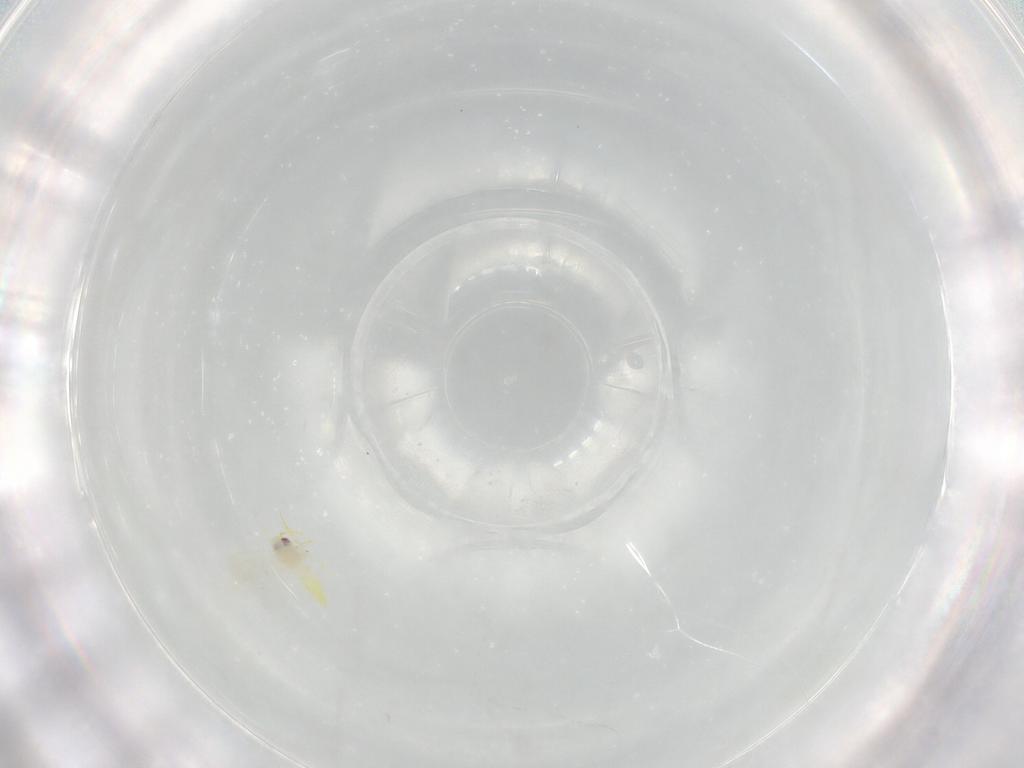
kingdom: Animalia
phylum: Arthropoda
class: Insecta
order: Hemiptera
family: Aleyrodidae
